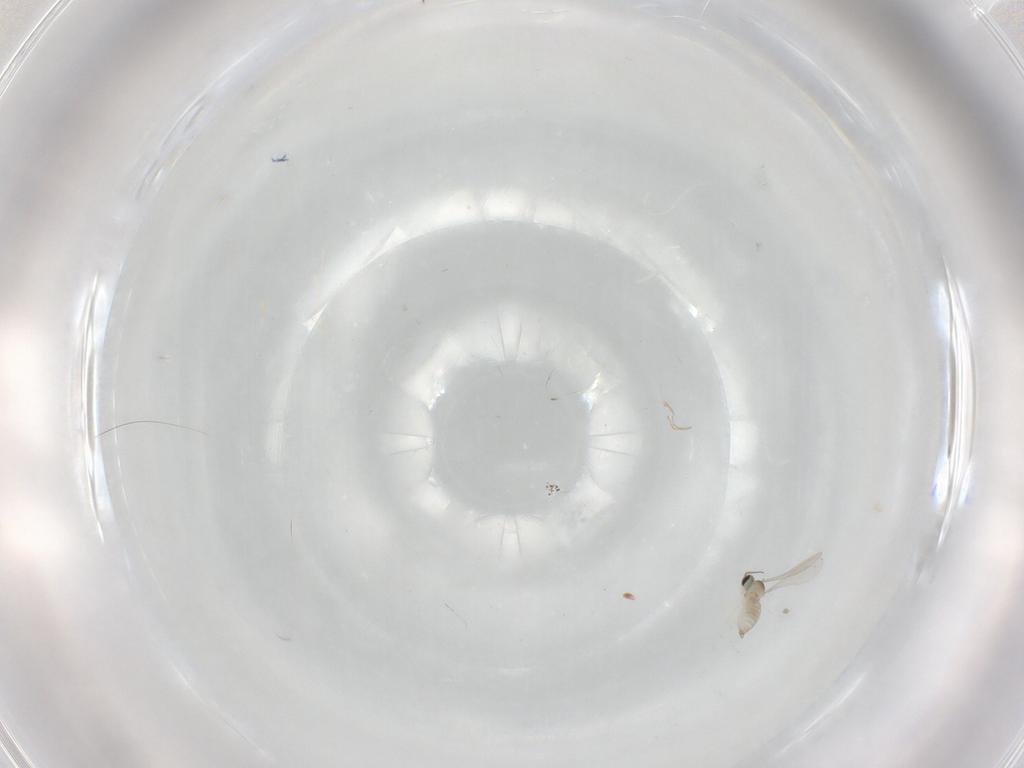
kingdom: Animalia
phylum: Arthropoda
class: Insecta
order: Diptera
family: Cecidomyiidae
